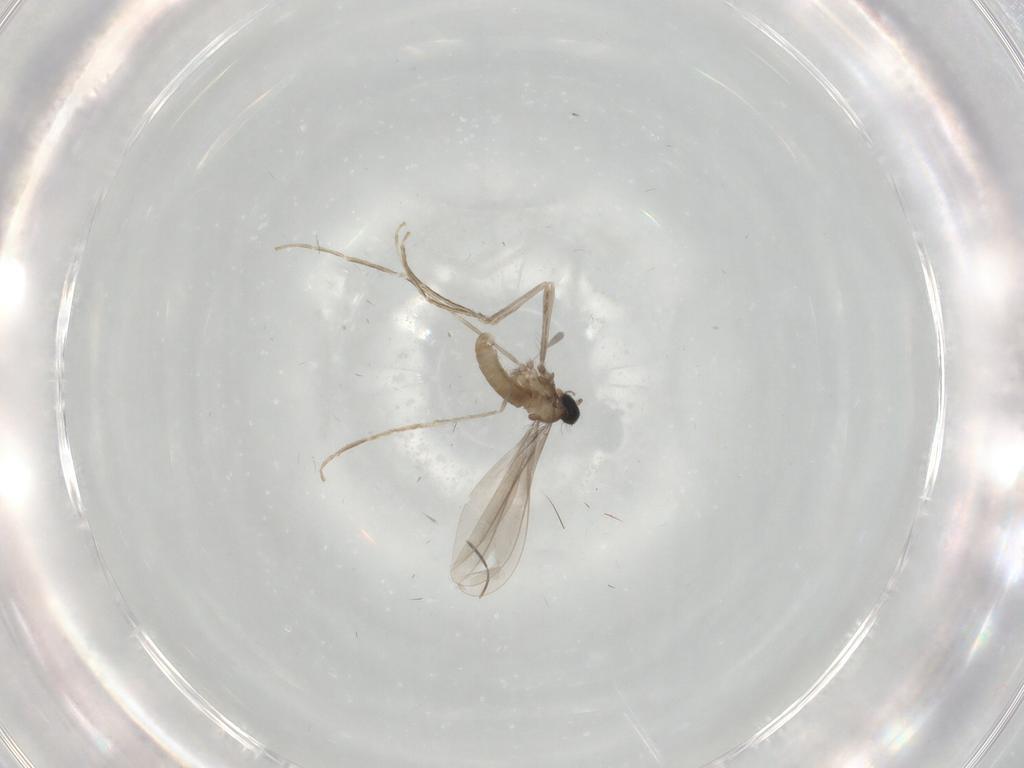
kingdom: Animalia
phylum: Arthropoda
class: Insecta
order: Diptera
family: Cecidomyiidae
